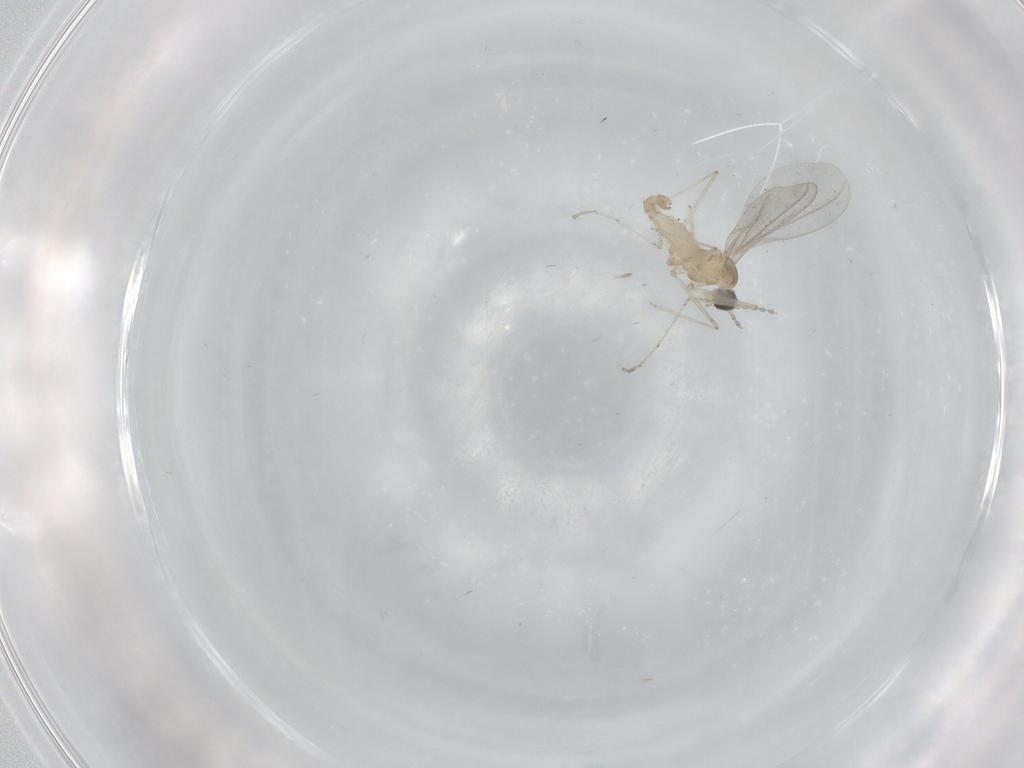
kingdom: Animalia
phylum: Arthropoda
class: Insecta
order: Diptera
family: Cecidomyiidae
